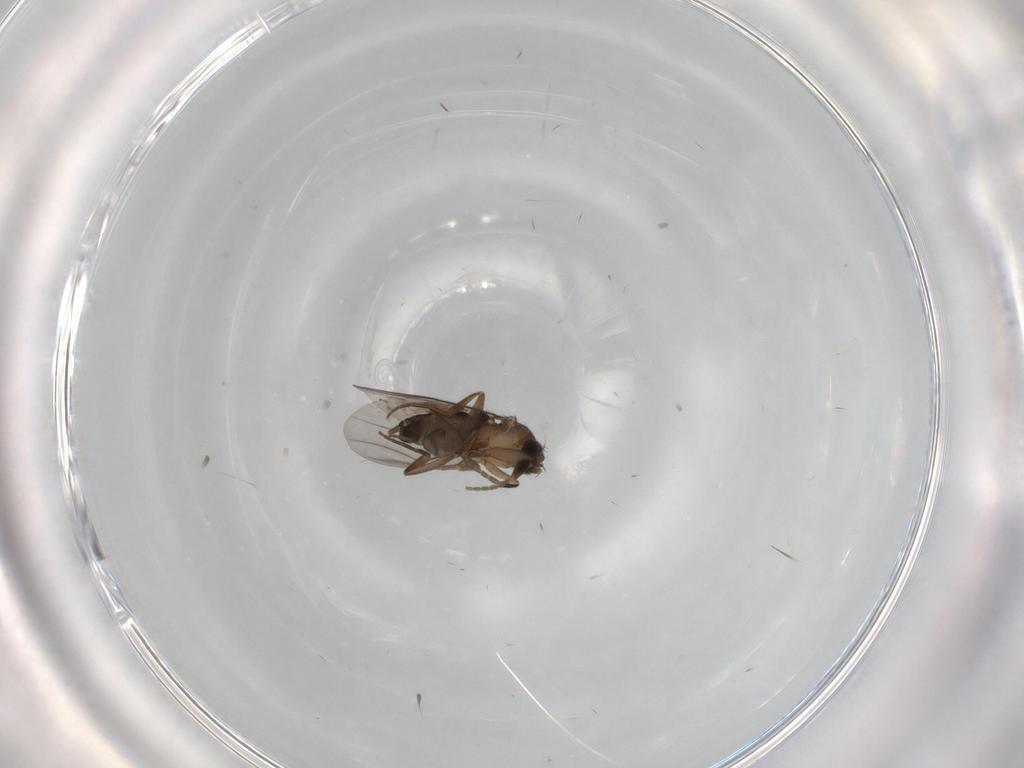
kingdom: Animalia
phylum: Arthropoda
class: Insecta
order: Diptera
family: Phoridae
